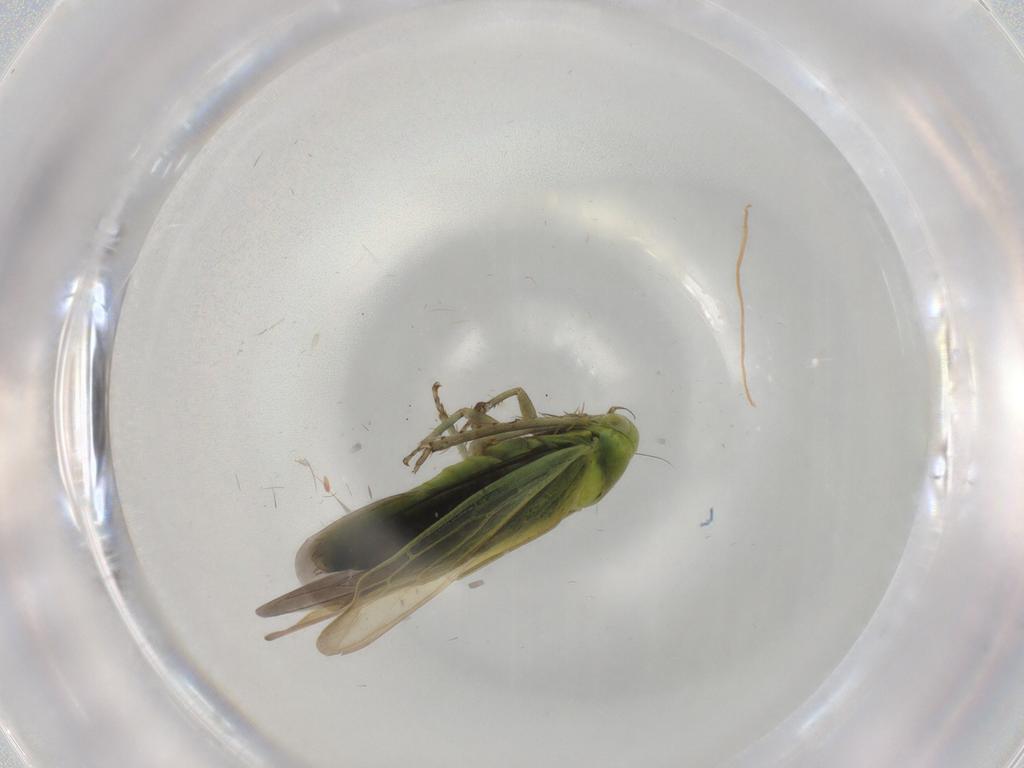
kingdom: Animalia
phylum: Arthropoda
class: Insecta
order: Hemiptera
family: Cicadellidae
